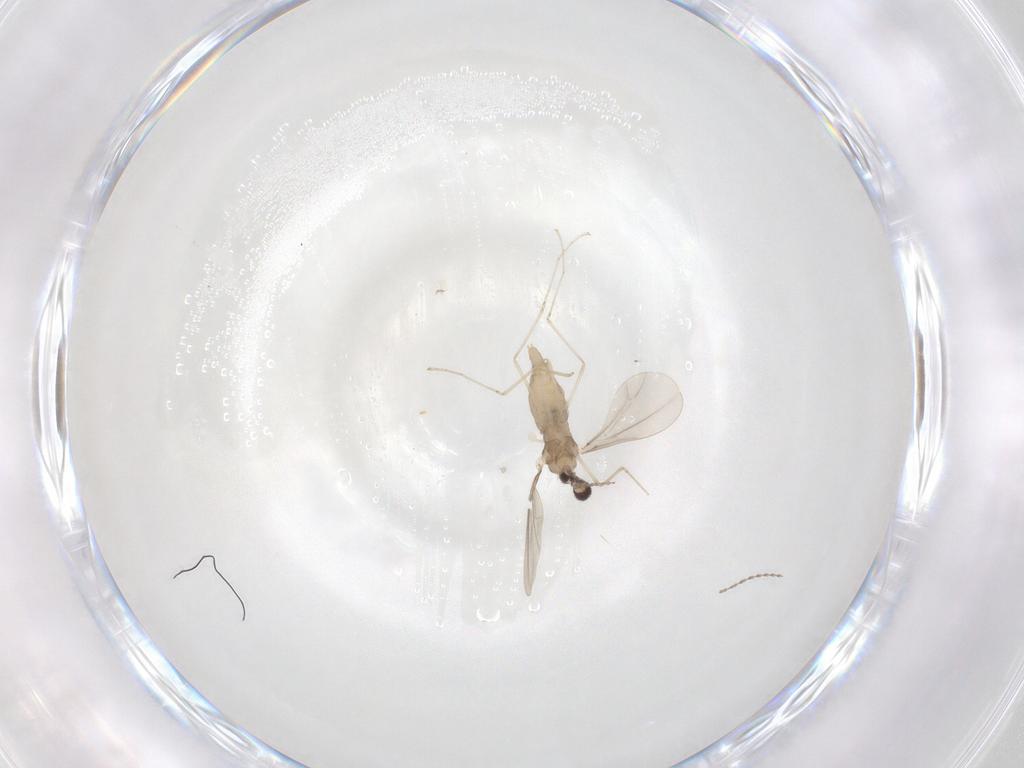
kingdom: Animalia
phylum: Arthropoda
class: Insecta
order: Diptera
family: Cecidomyiidae
